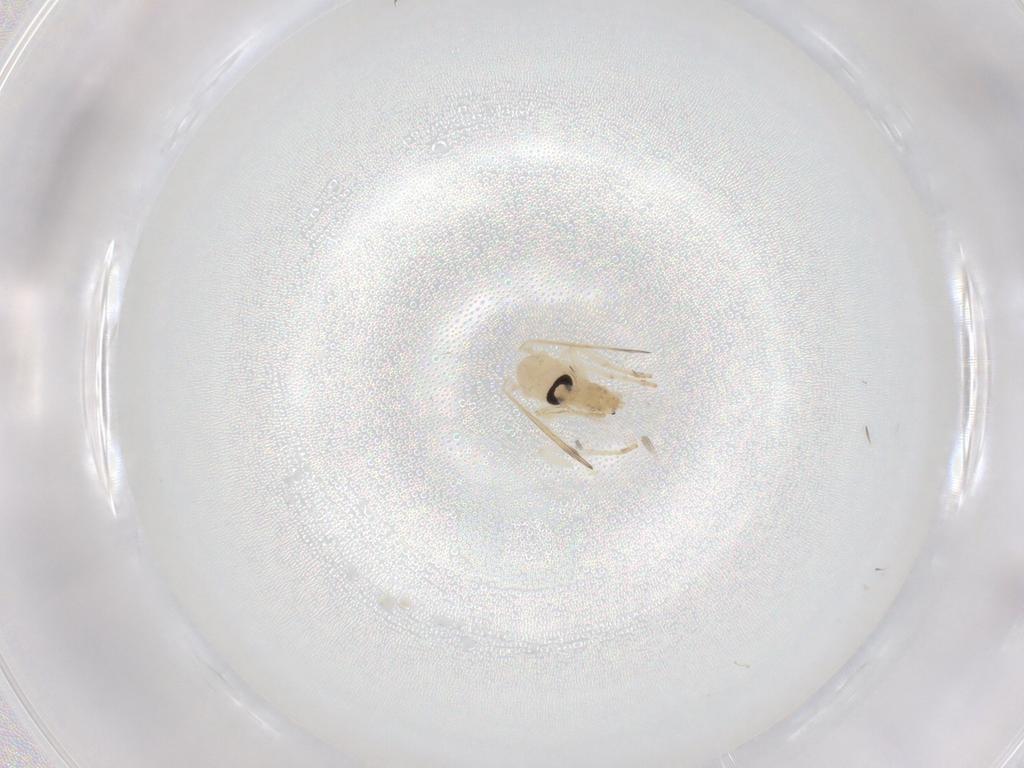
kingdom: Animalia
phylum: Arthropoda
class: Insecta
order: Diptera
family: Psychodidae
